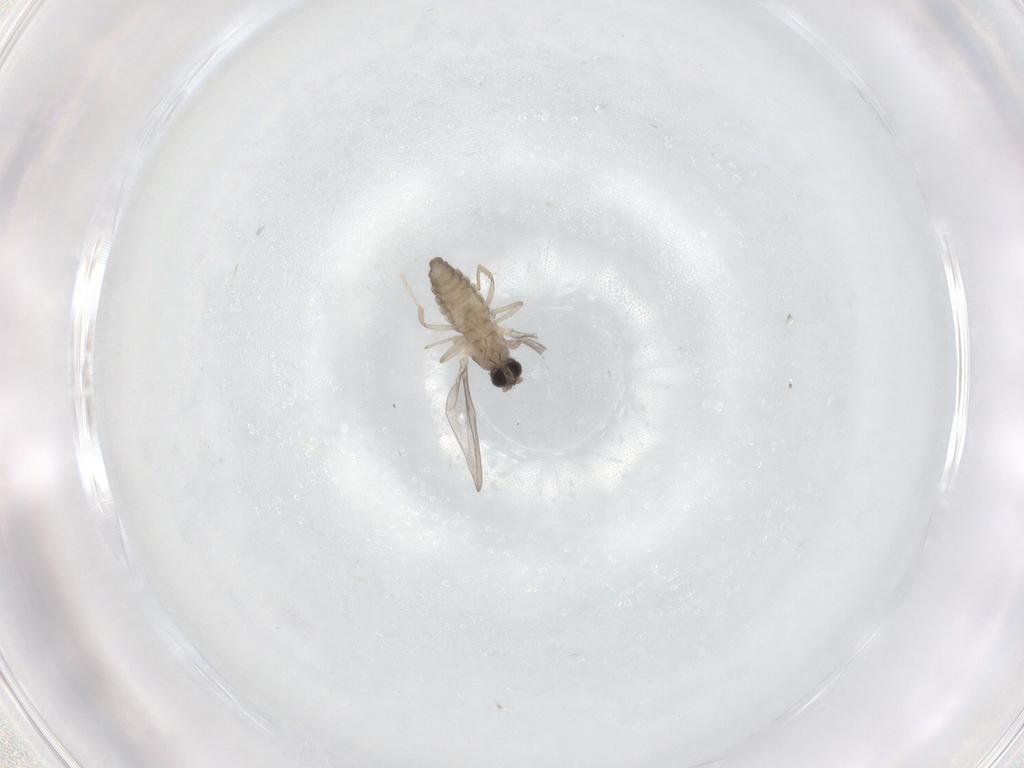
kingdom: Animalia
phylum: Arthropoda
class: Insecta
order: Diptera
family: Cecidomyiidae
